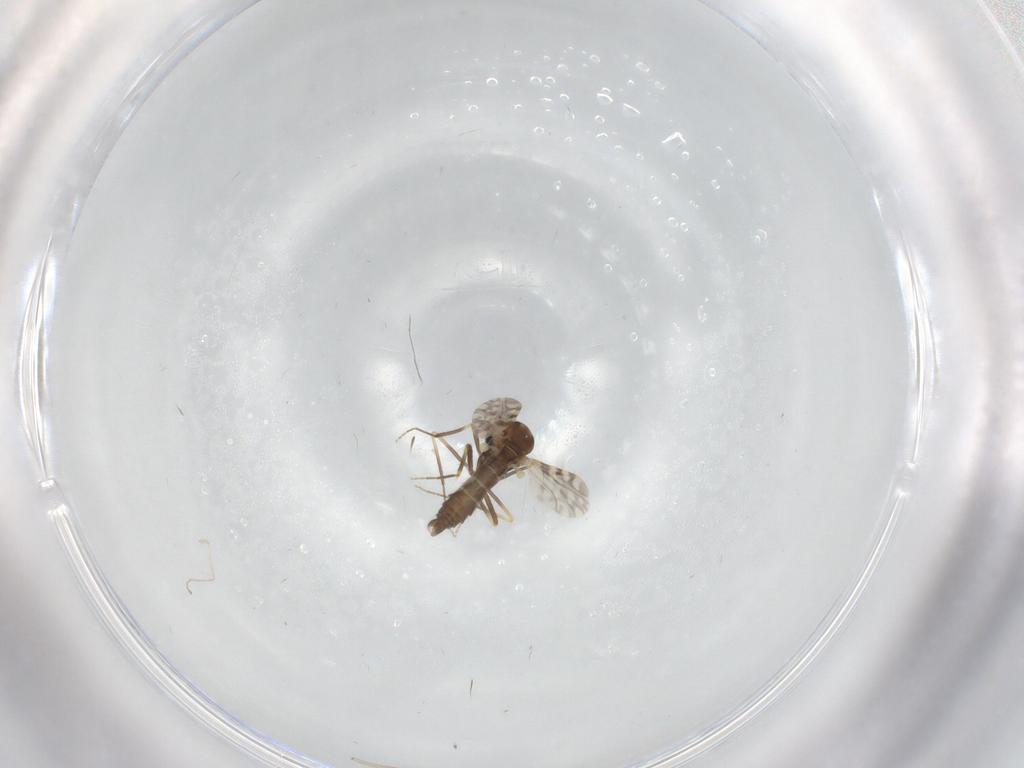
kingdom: Animalia
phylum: Arthropoda
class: Insecta
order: Diptera
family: Ceratopogonidae
